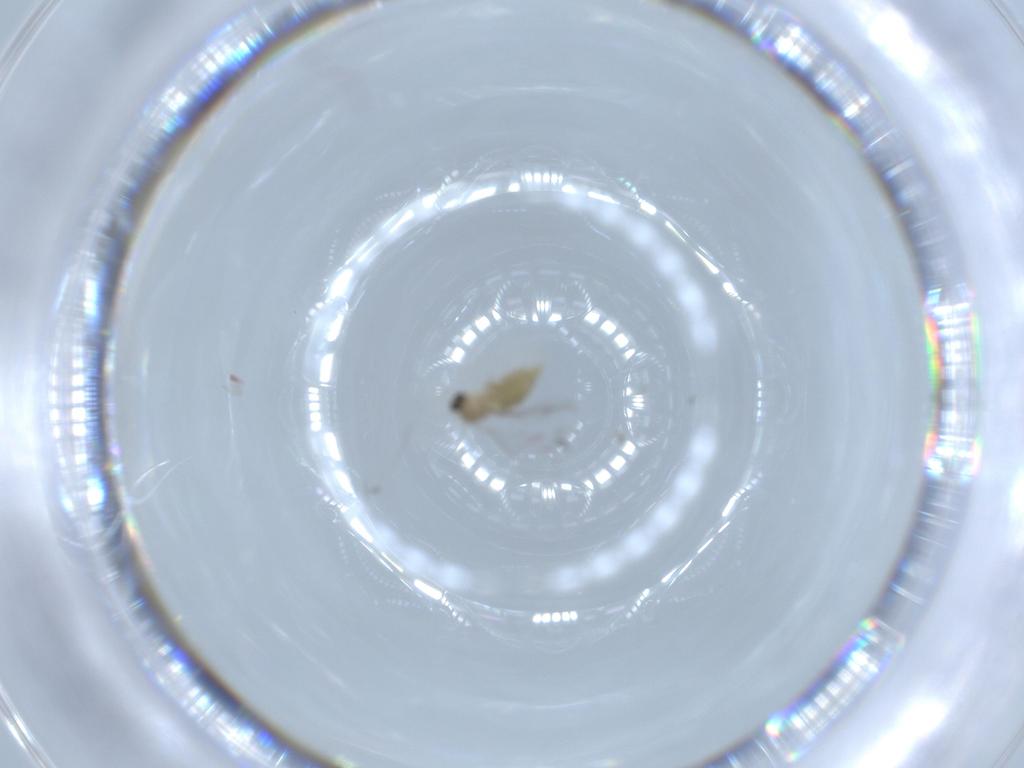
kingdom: Animalia
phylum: Arthropoda
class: Insecta
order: Diptera
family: Cecidomyiidae
